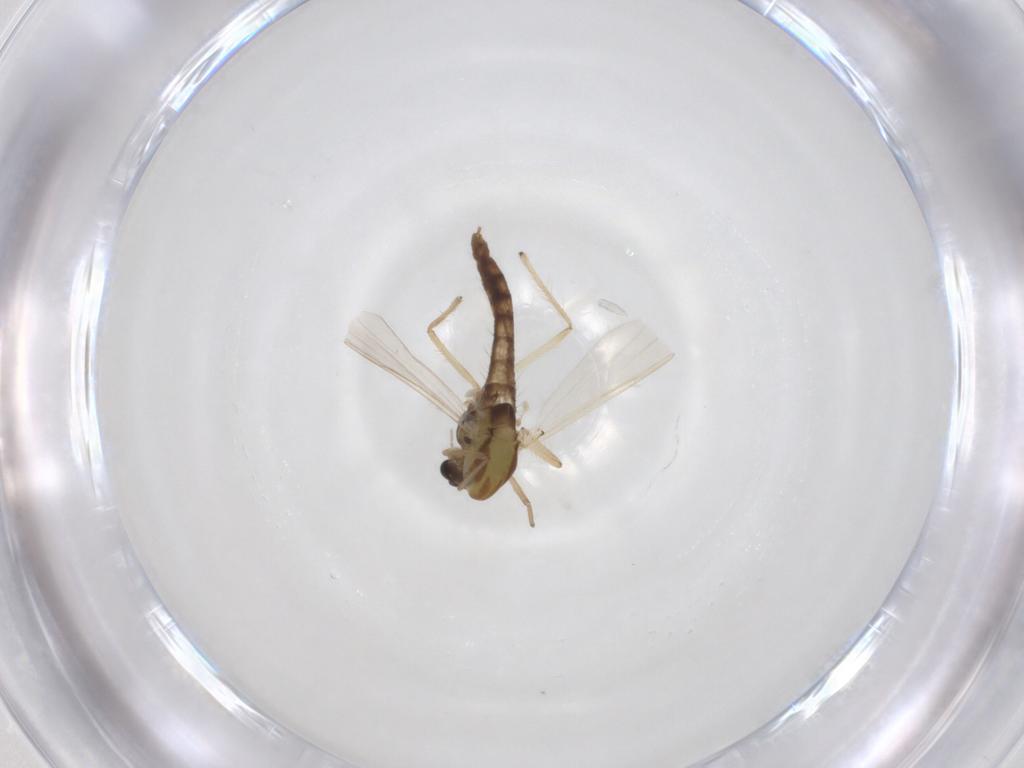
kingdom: Animalia
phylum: Arthropoda
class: Insecta
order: Diptera
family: Chironomidae
